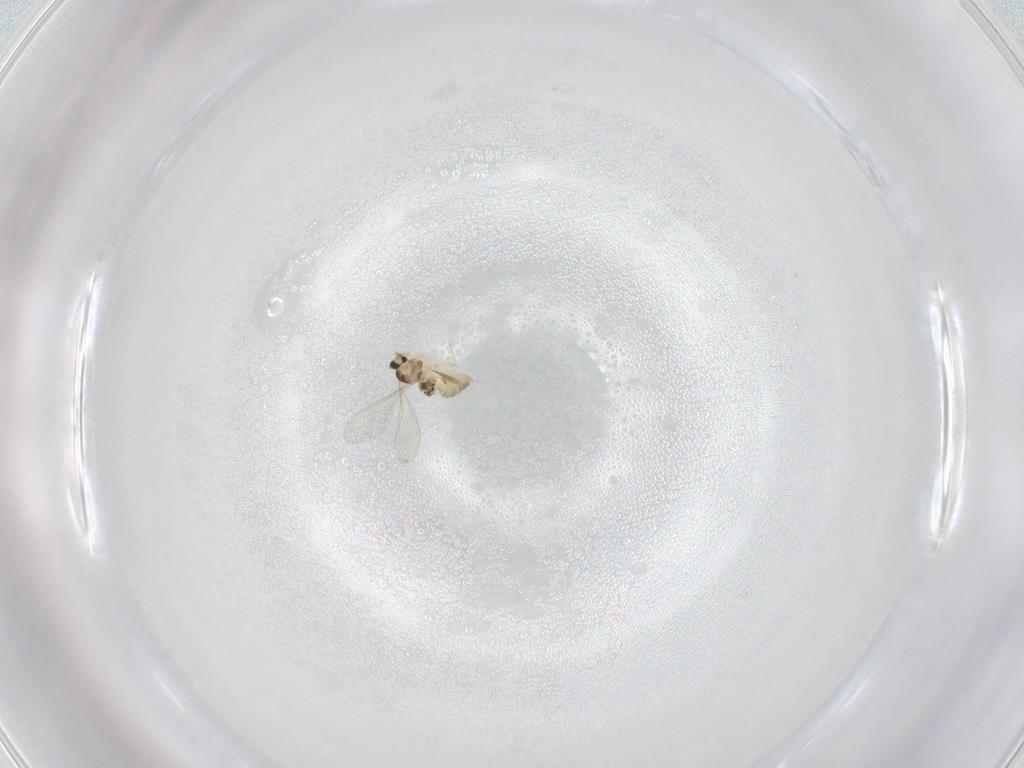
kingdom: Animalia
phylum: Arthropoda
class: Insecta
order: Diptera
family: Cecidomyiidae
